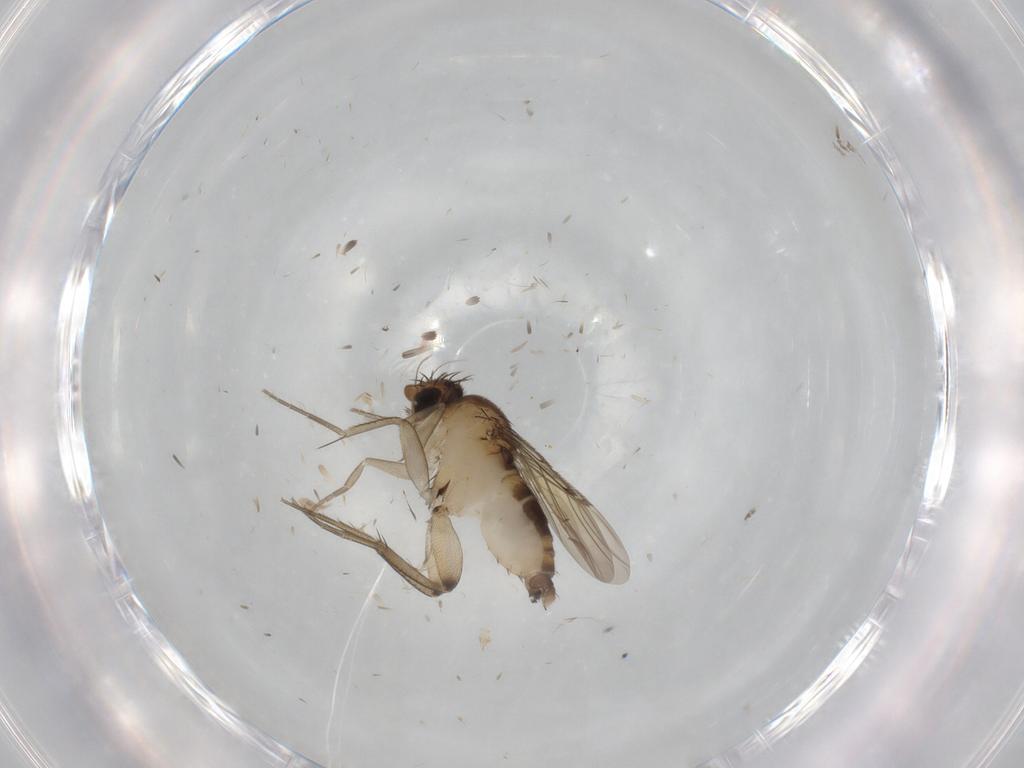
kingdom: Animalia
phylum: Arthropoda
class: Insecta
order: Diptera
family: Phoridae
